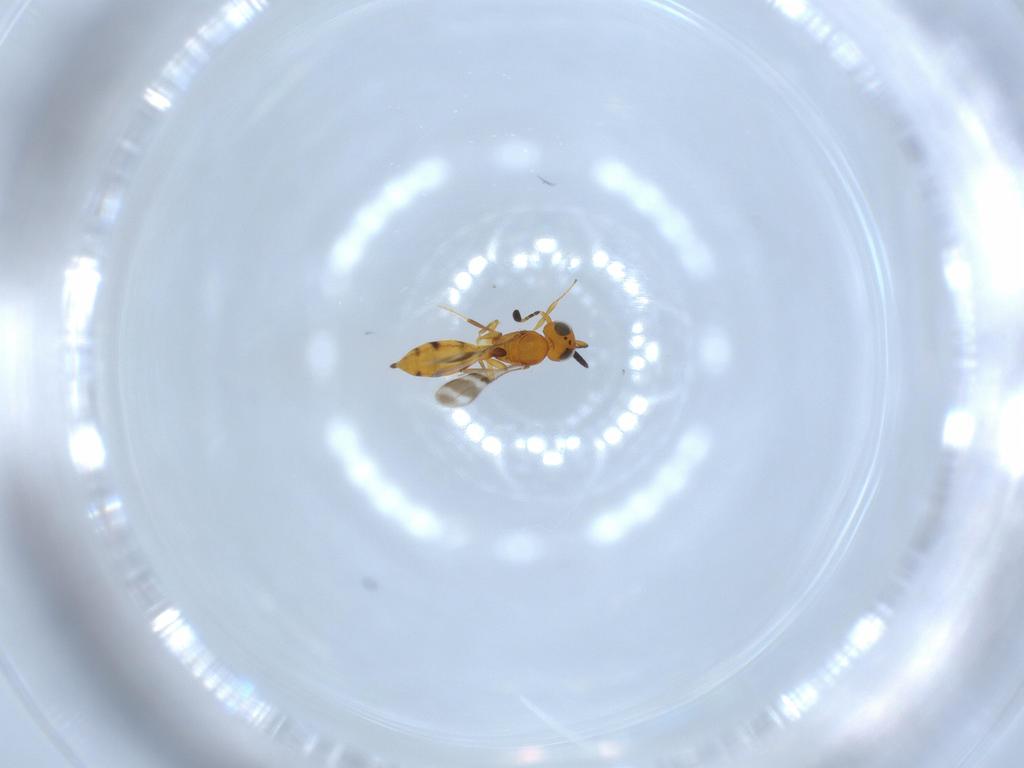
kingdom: Animalia
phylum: Arthropoda
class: Insecta
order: Hymenoptera
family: Scelionidae
